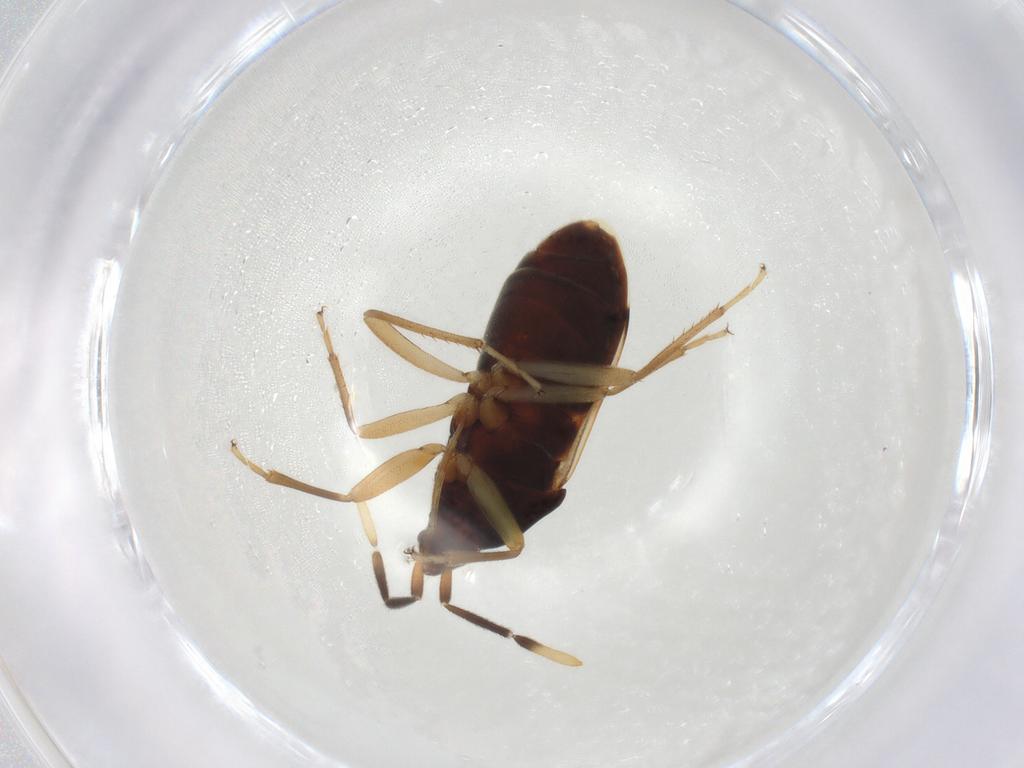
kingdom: Animalia
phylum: Arthropoda
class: Insecta
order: Hemiptera
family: Rhyparochromidae
